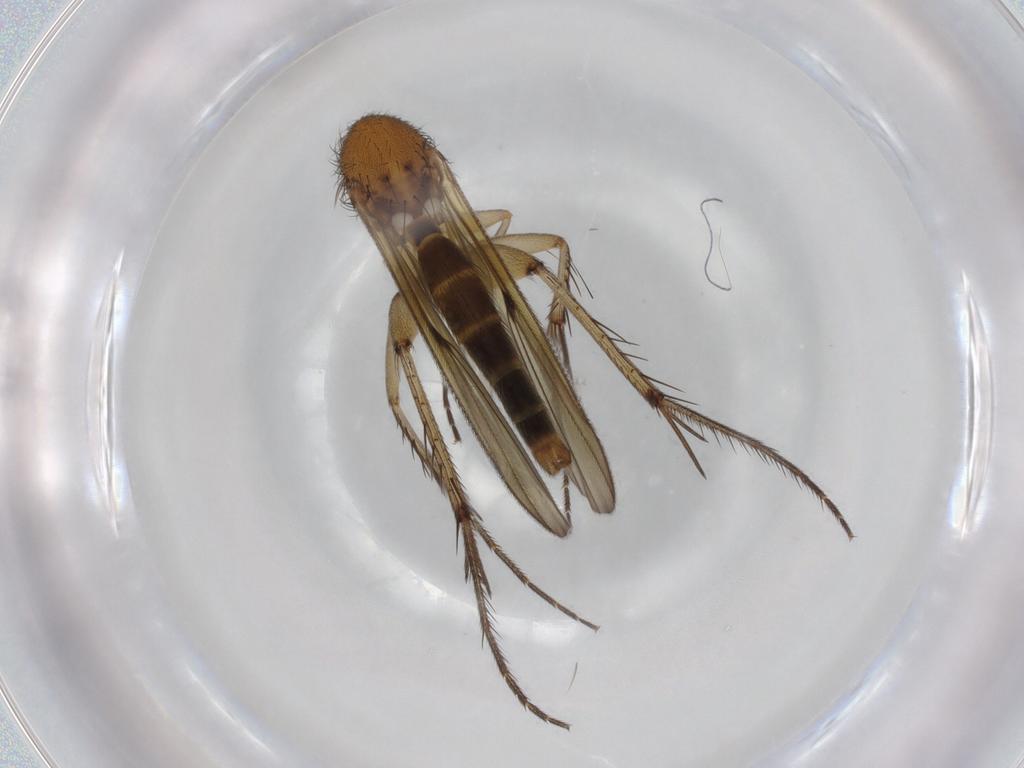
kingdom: Animalia
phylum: Arthropoda
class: Insecta
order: Diptera
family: Mycetophilidae
